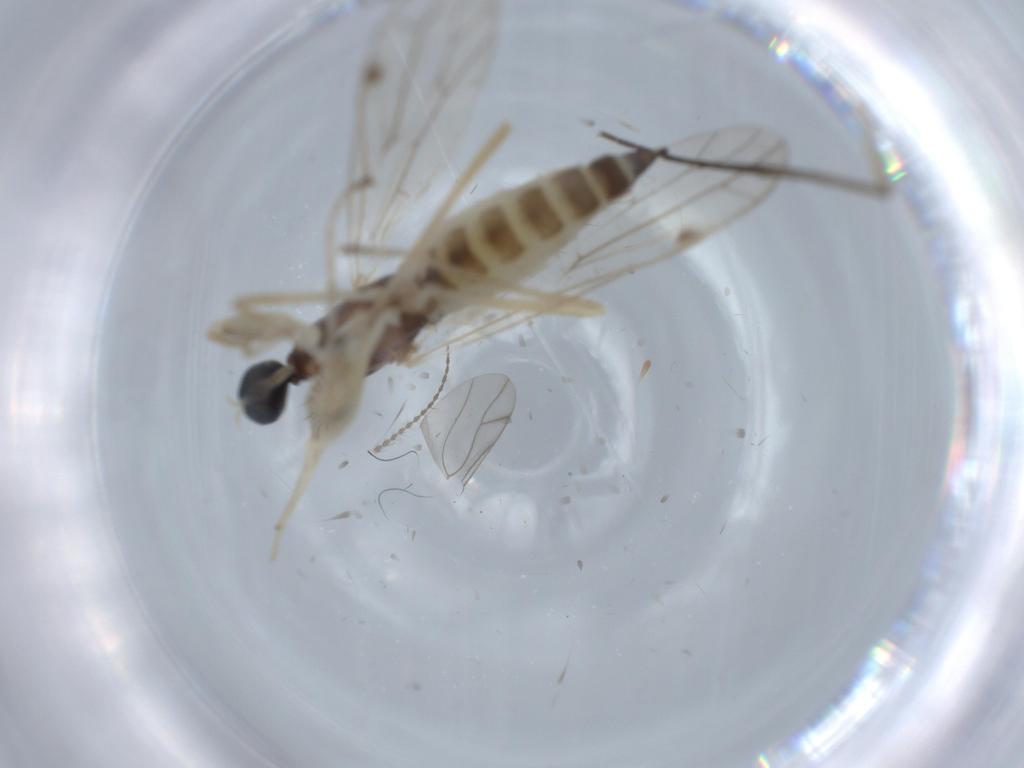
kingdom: Animalia
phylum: Arthropoda
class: Insecta
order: Diptera
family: Empididae
